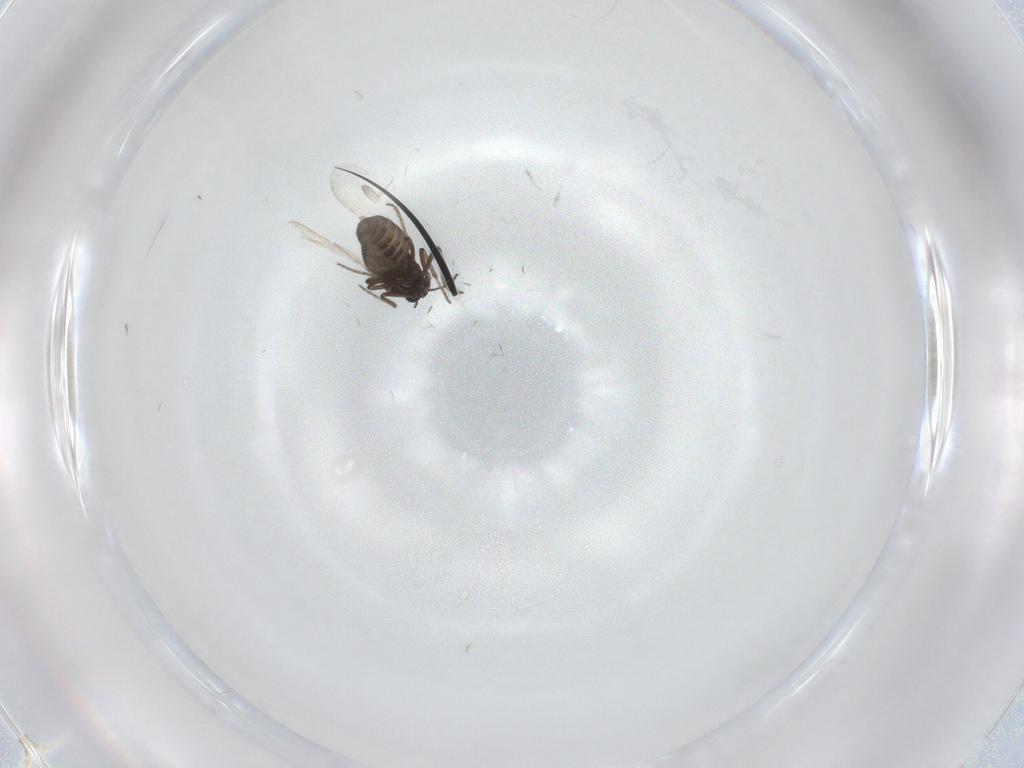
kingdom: Animalia
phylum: Arthropoda
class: Insecta
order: Diptera
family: Ceratopogonidae
